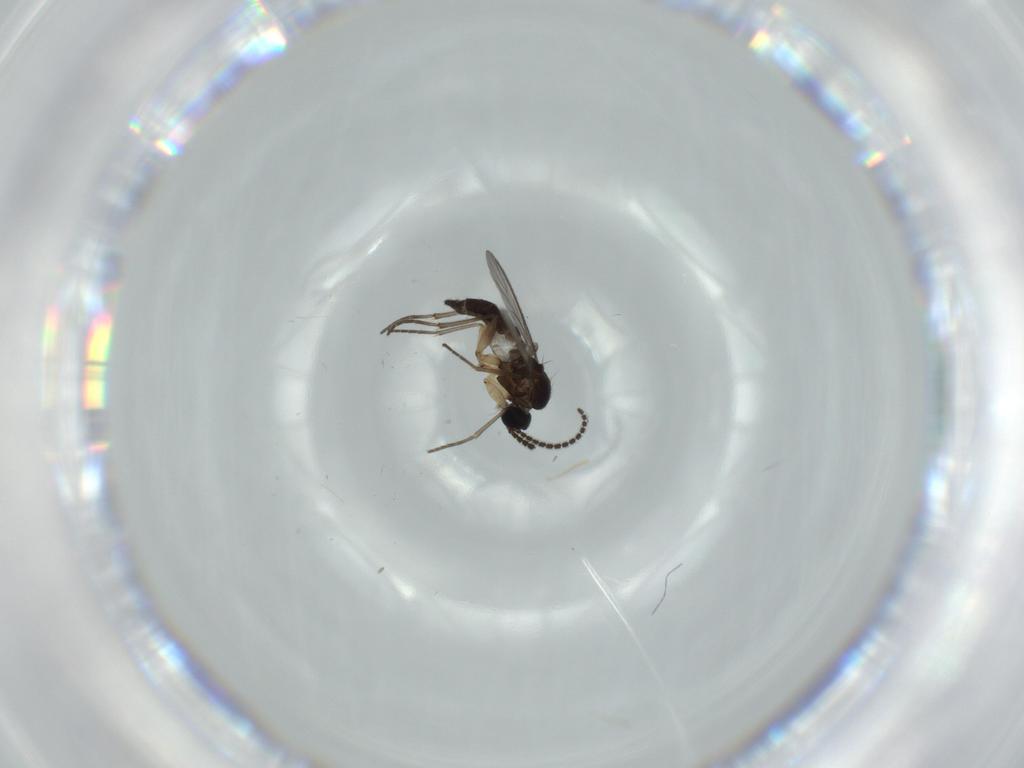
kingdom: Animalia
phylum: Arthropoda
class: Insecta
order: Diptera
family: Sciaridae
